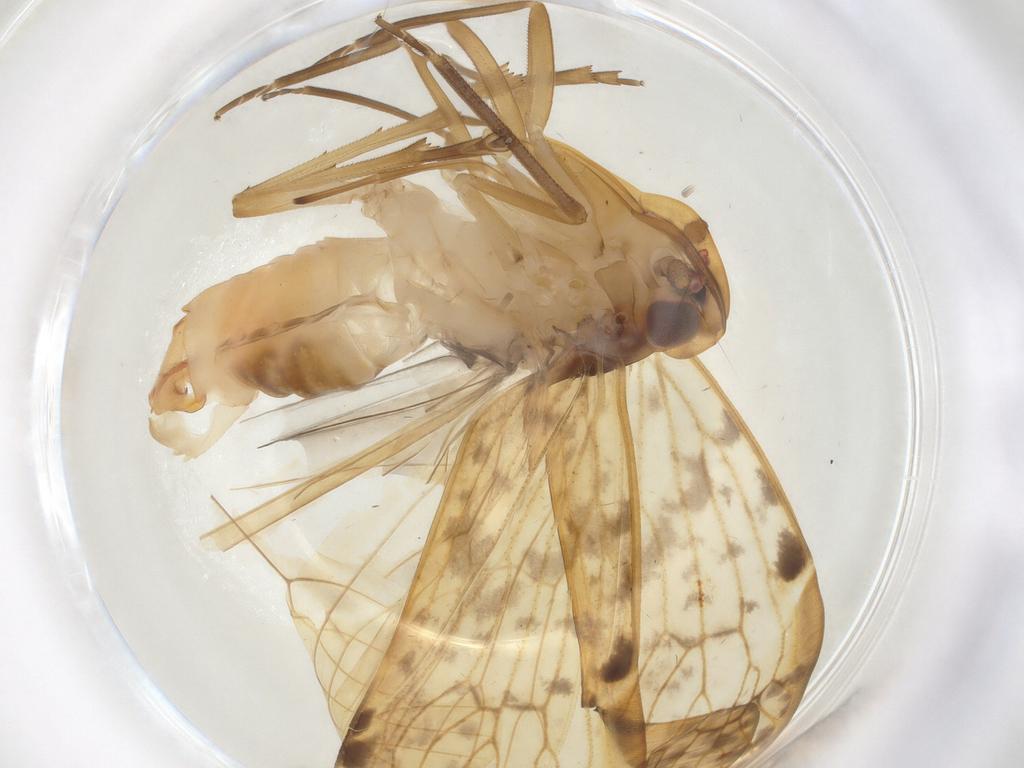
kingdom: Animalia
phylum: Arthropoda
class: Insecta
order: Hemiptera
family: Cixiidae
